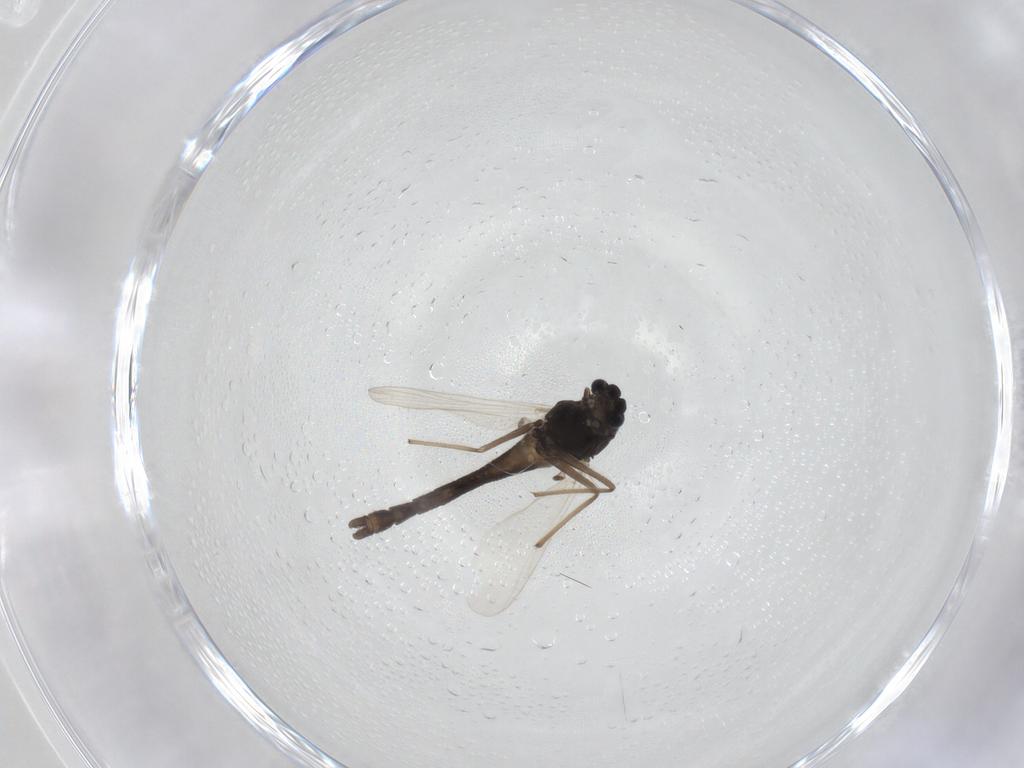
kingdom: Animalia
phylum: Arthropoda
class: Insecta
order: Diptera
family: Chironomidae
